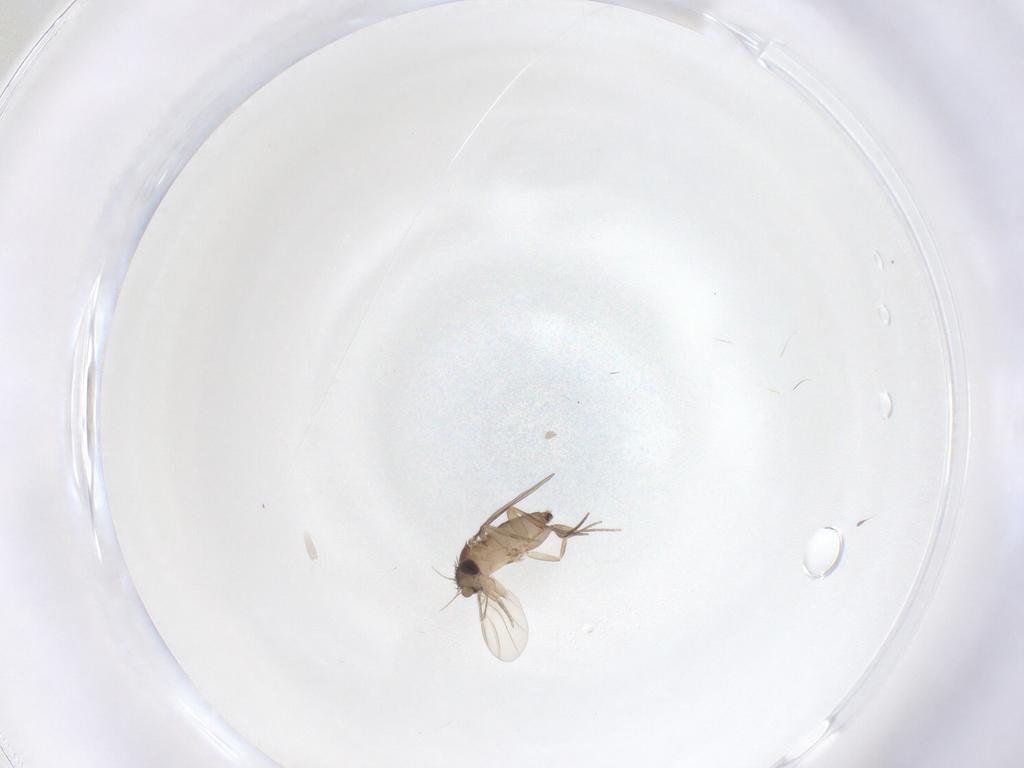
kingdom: Animalia
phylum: Arthropoda
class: Insecta
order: Diptera
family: Phoridae
